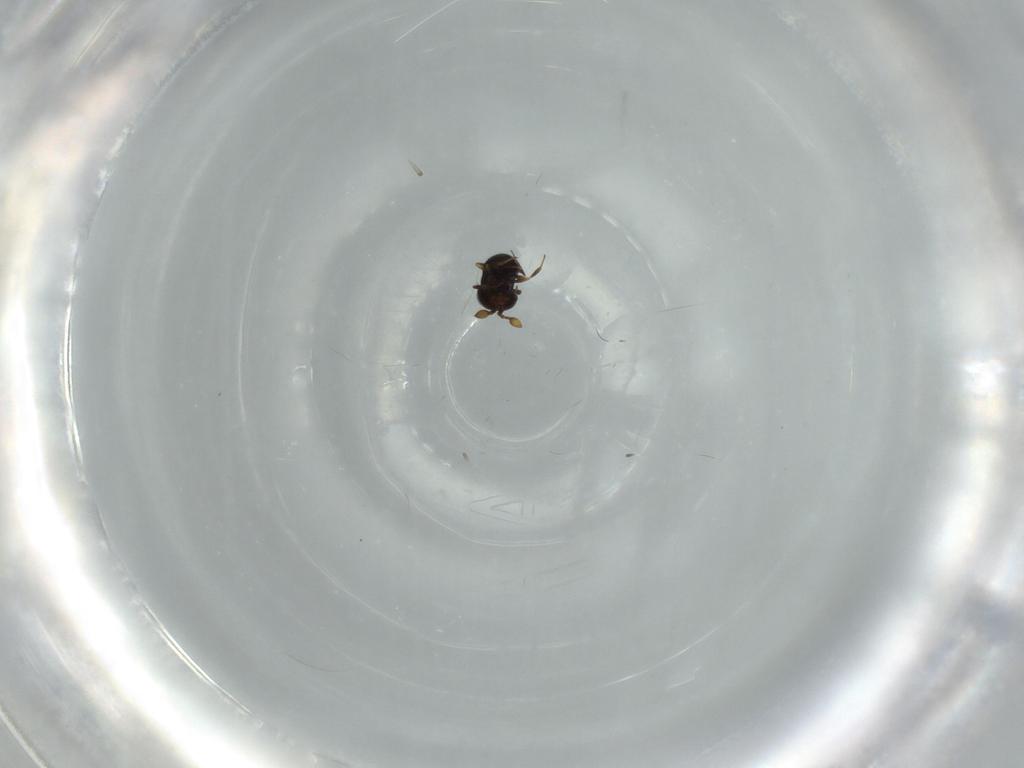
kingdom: Animalia
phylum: Arthropoda
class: Insecta
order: Hymenoptera
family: Scelionidae
